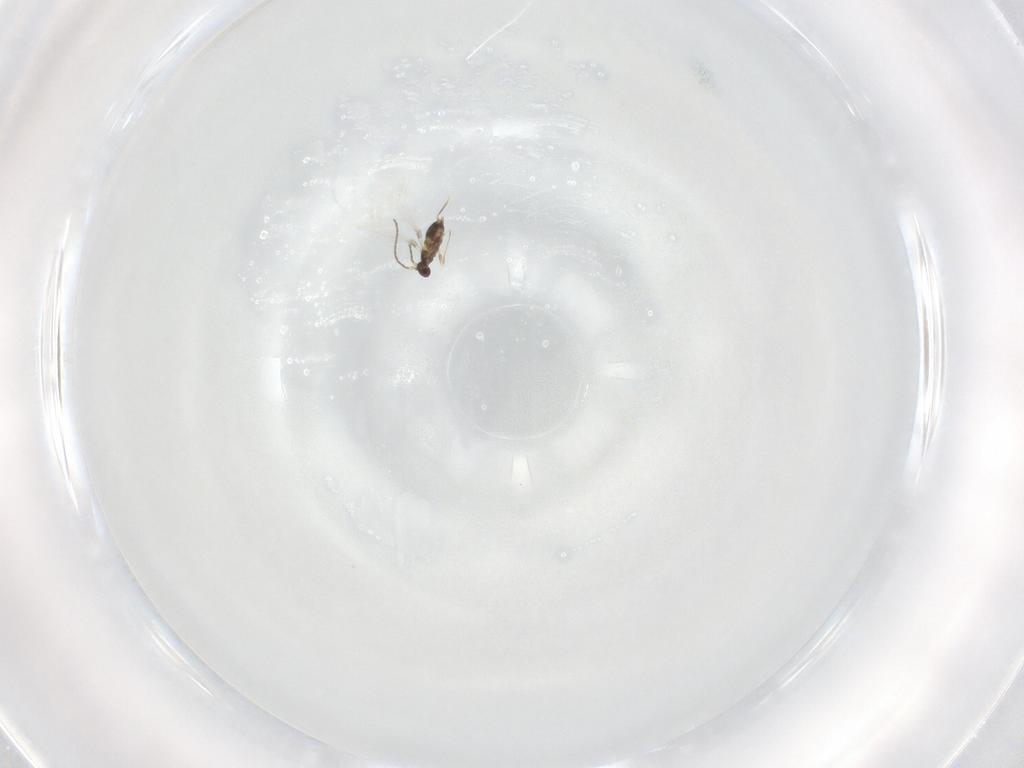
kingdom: Animalia
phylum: Arthropoda
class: Insecta
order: Hymenoptera
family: Mymaridae
